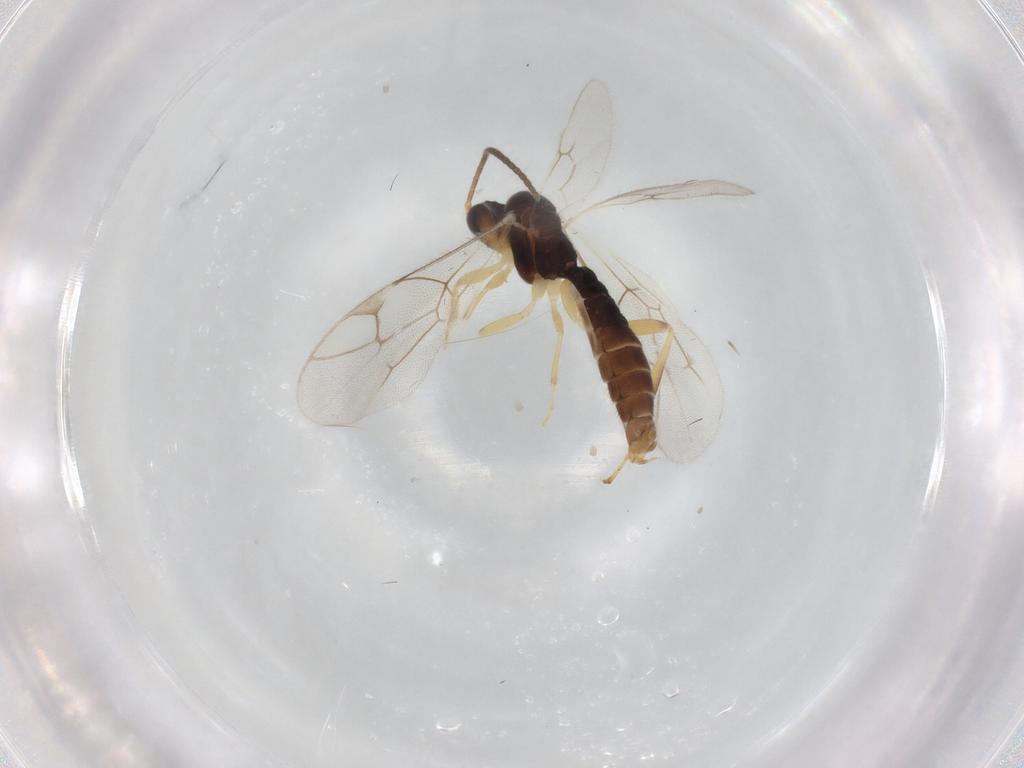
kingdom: Animalia
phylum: Arthropoda
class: Insecta
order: Hymenoptera
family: Ichneumonidae
